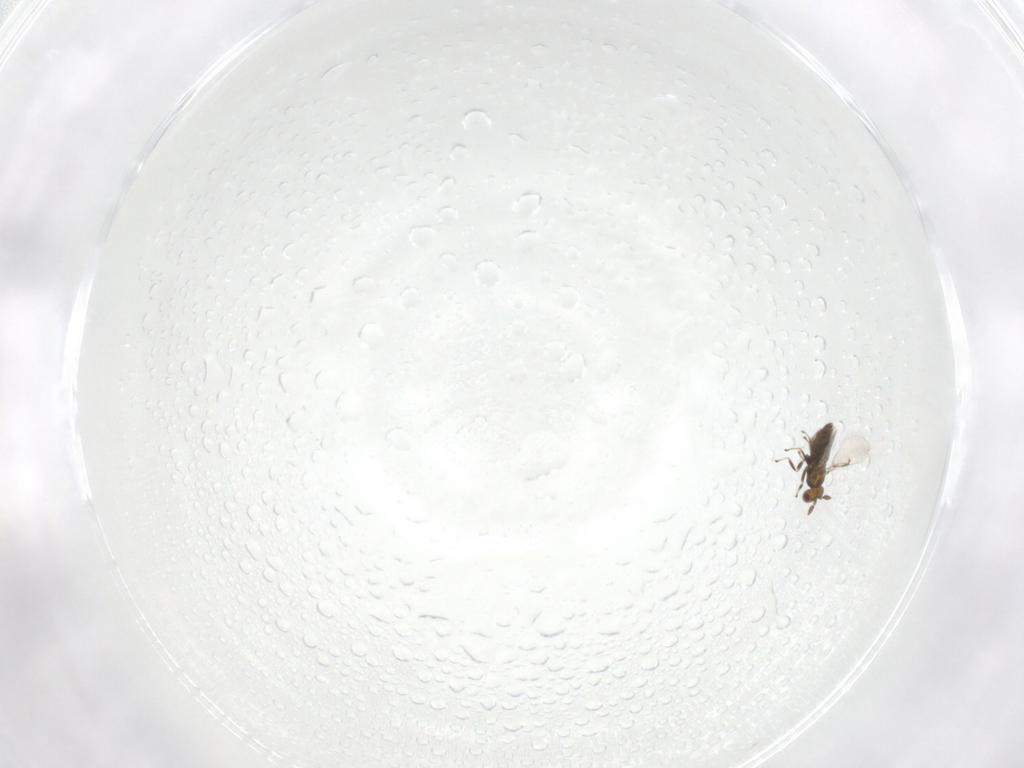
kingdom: Animalia
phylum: Arthropoda
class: Insecta
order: Hymenoptera
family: Trichogrammatidae
